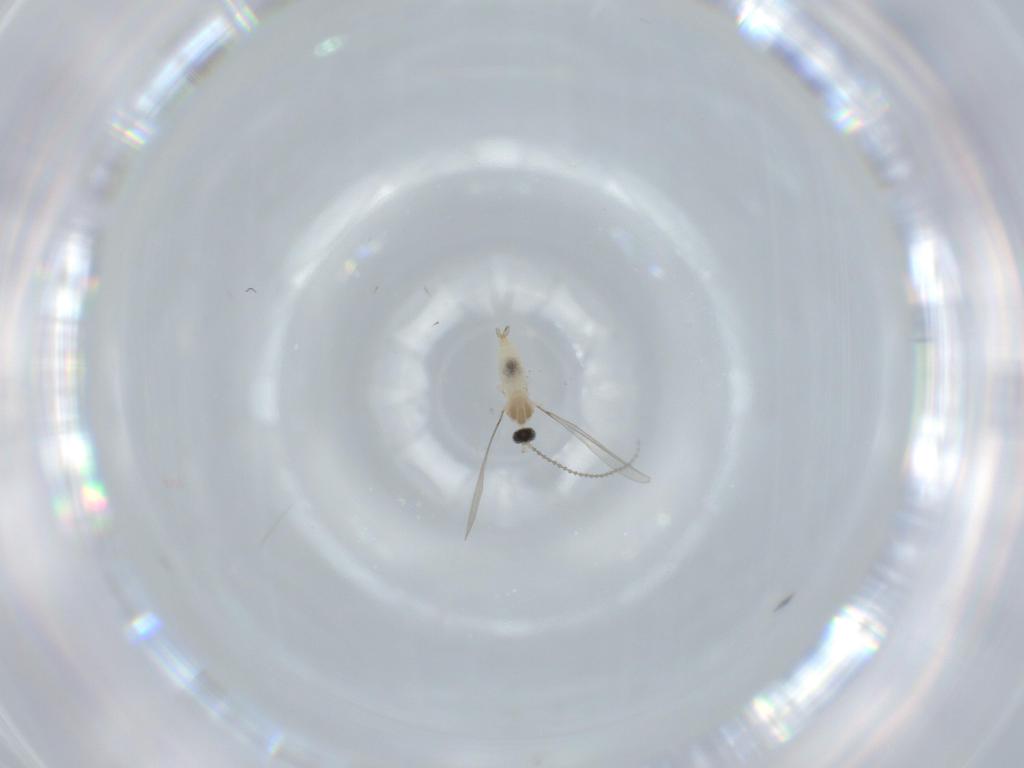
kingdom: Animalia
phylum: Arthropoda
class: Insecta
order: Diptera
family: Cecidomyiidae
